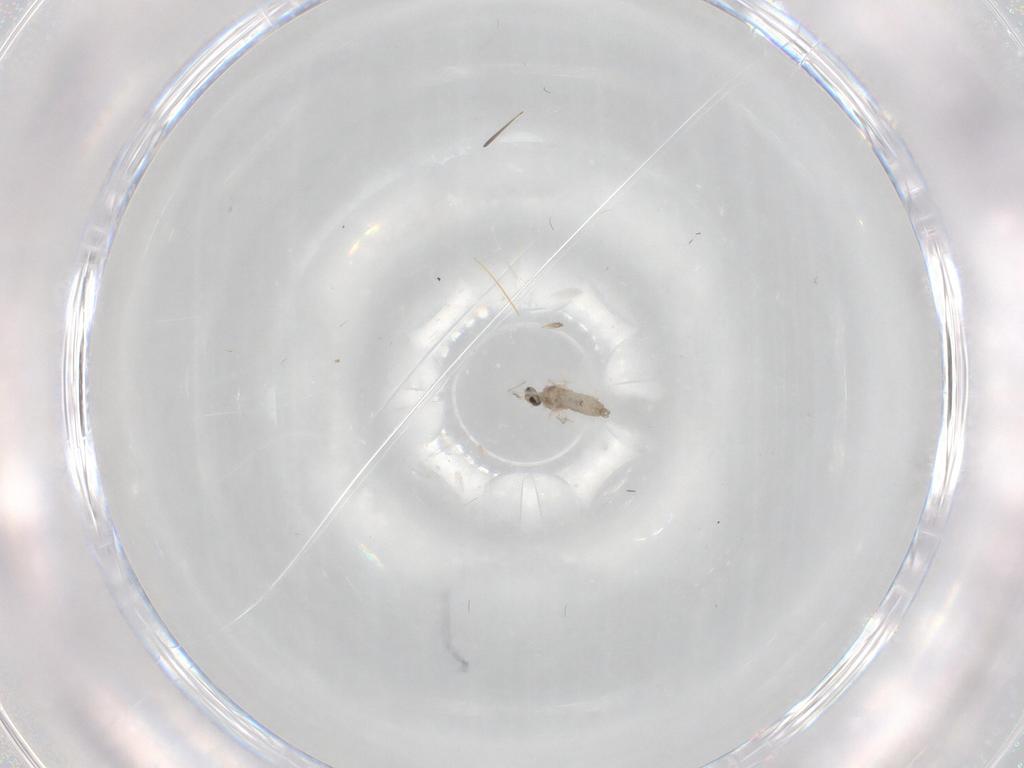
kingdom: Animalia
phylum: Arthropoda
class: Insecta
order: Diptera
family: Cecidomyiidae
